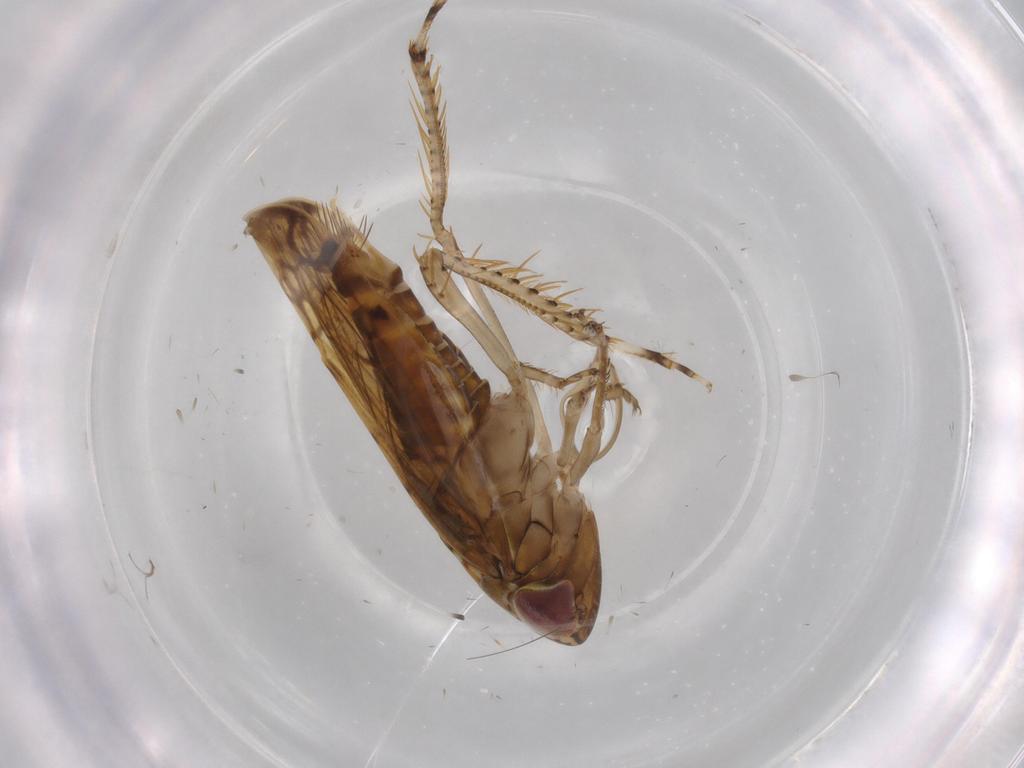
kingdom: Animalia
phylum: Arthropoda
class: Insecta
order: Hemiptera
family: Cicadellidae
